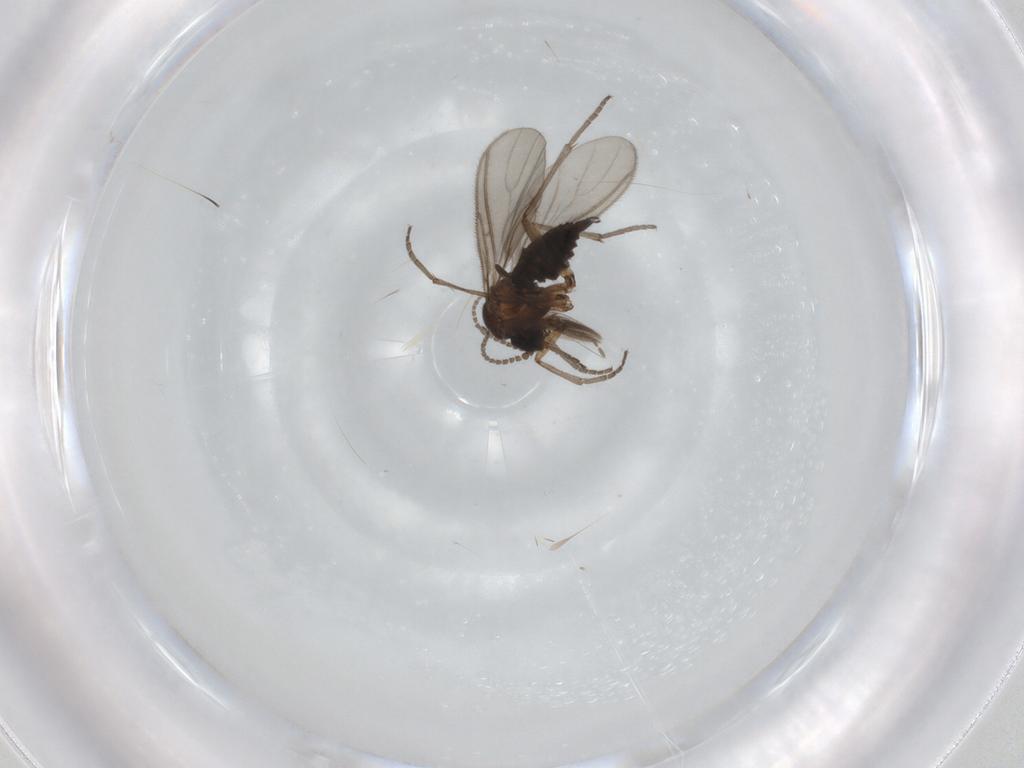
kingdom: Animalia
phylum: Arthropoda
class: Insecta
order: Diptera
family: Sciaridae
